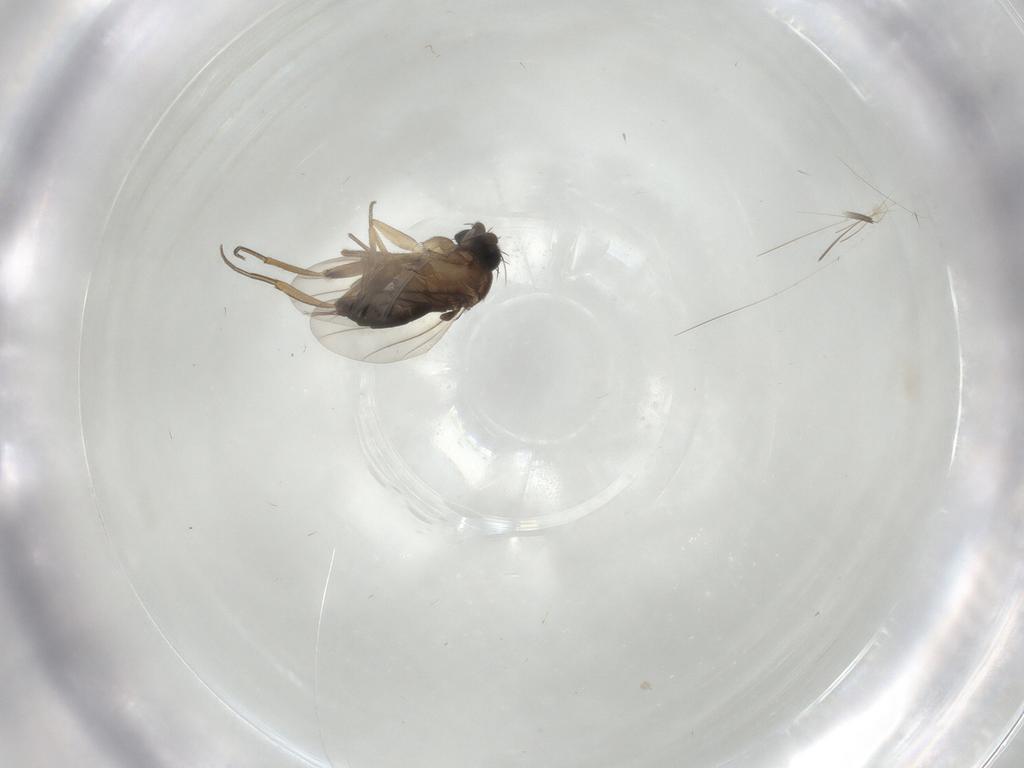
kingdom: Animalia
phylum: Arthropoda
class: Insecta
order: Diptera
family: Phoridae
